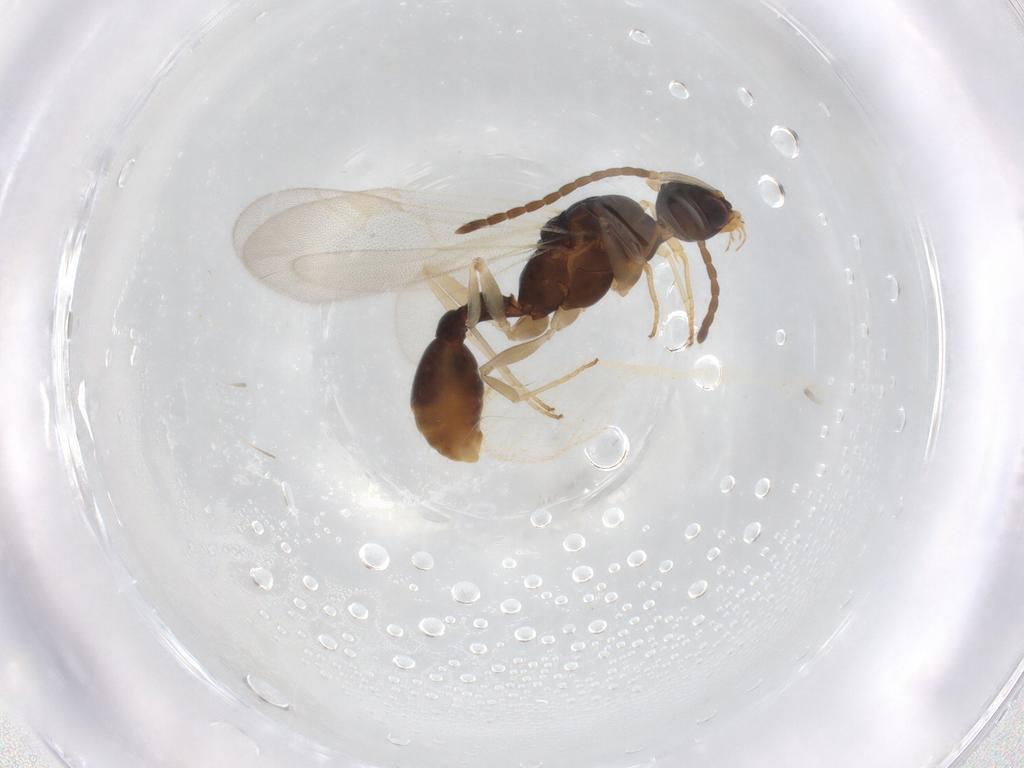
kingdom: Animalia
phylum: Arthropoda
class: Insecta
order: Hymenoptera
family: Formicidae
